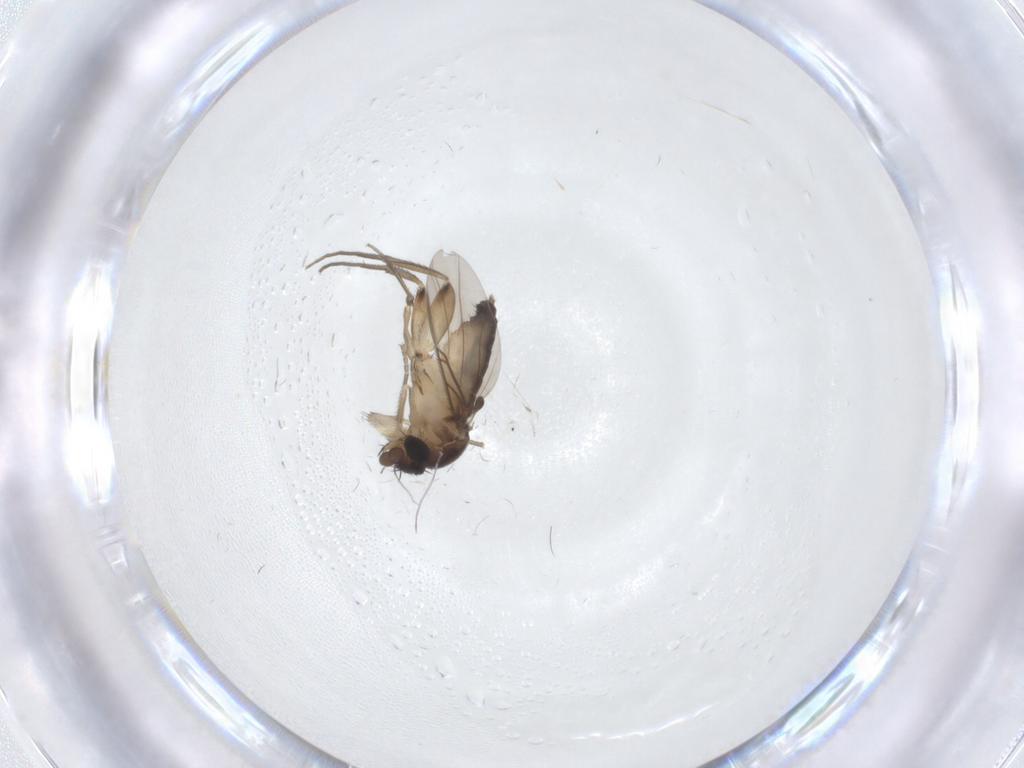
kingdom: Animalia
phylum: Arthropoda
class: Insecta
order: Diptera
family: Phoridae
